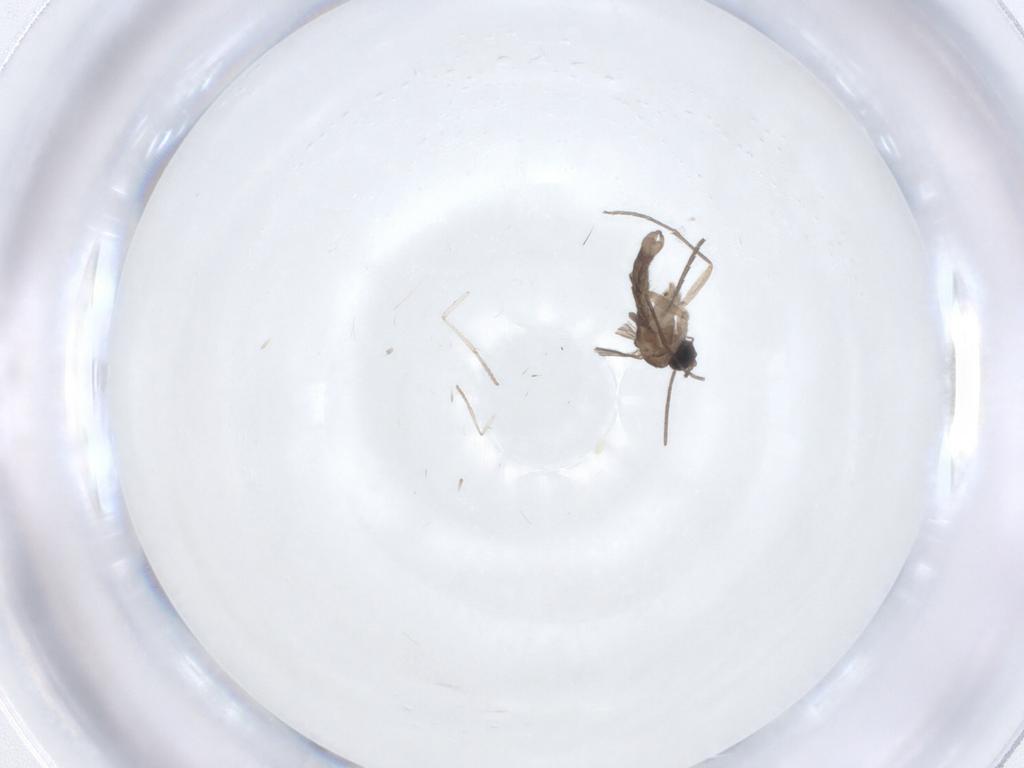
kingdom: Animalia
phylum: Arthropoda
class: Insecta
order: Diptera
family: Sciaridae
